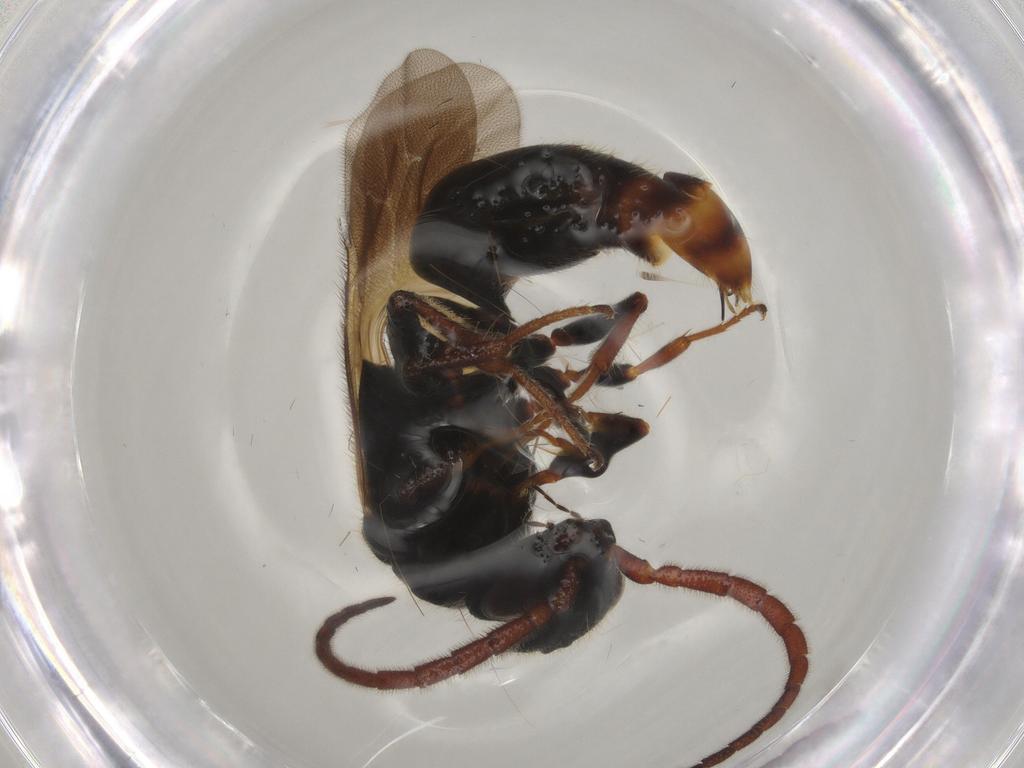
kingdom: Animalia
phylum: Arthropoda
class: Insecta
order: Hymenoptera
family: Bethylidae
